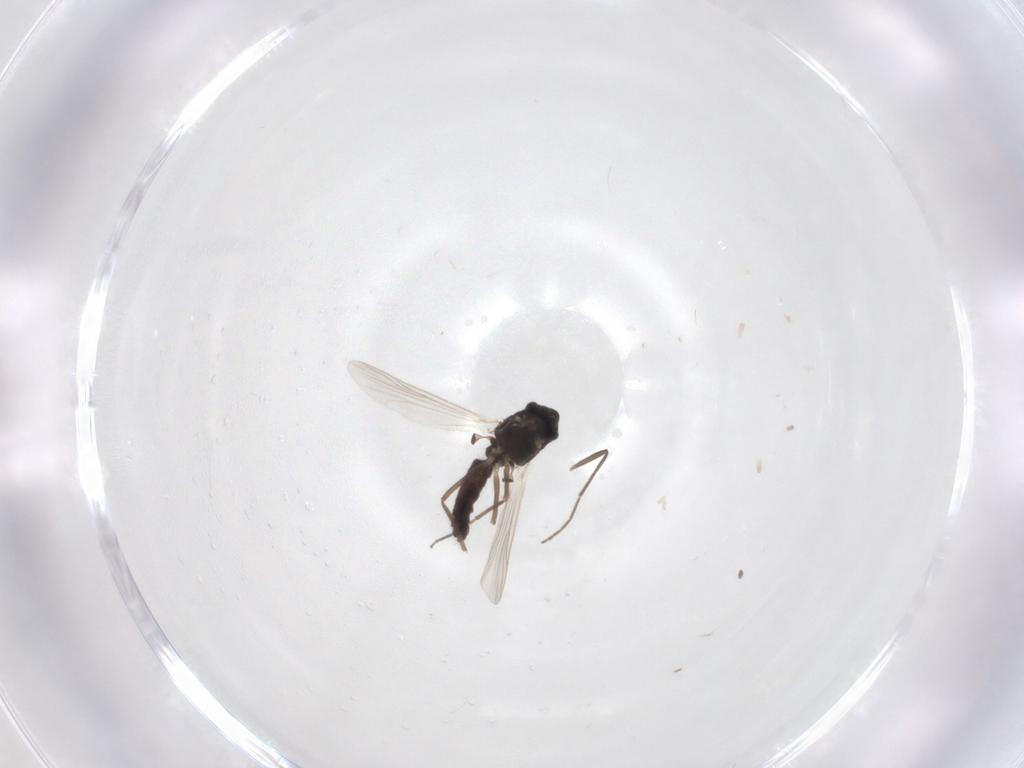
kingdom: Animalia
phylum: Arthropoda
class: Insecta
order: Diptera
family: Chironomidae
